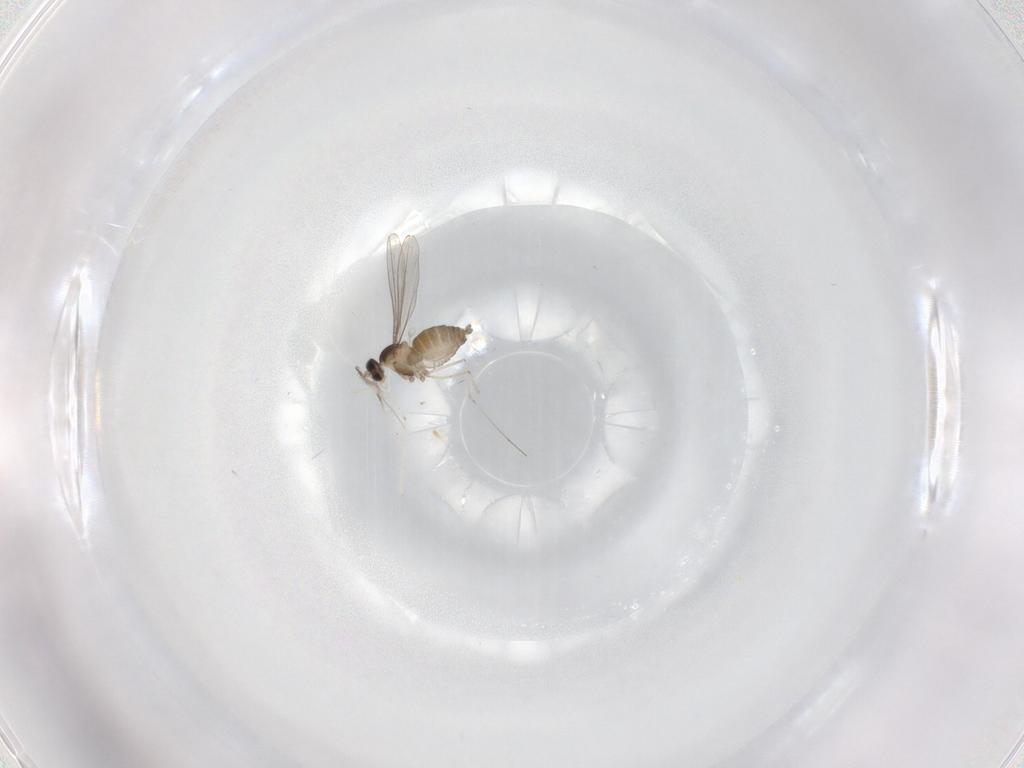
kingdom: Animalia
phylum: Arthropoda
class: Insecta
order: Diptera
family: Cecidomyiidae
